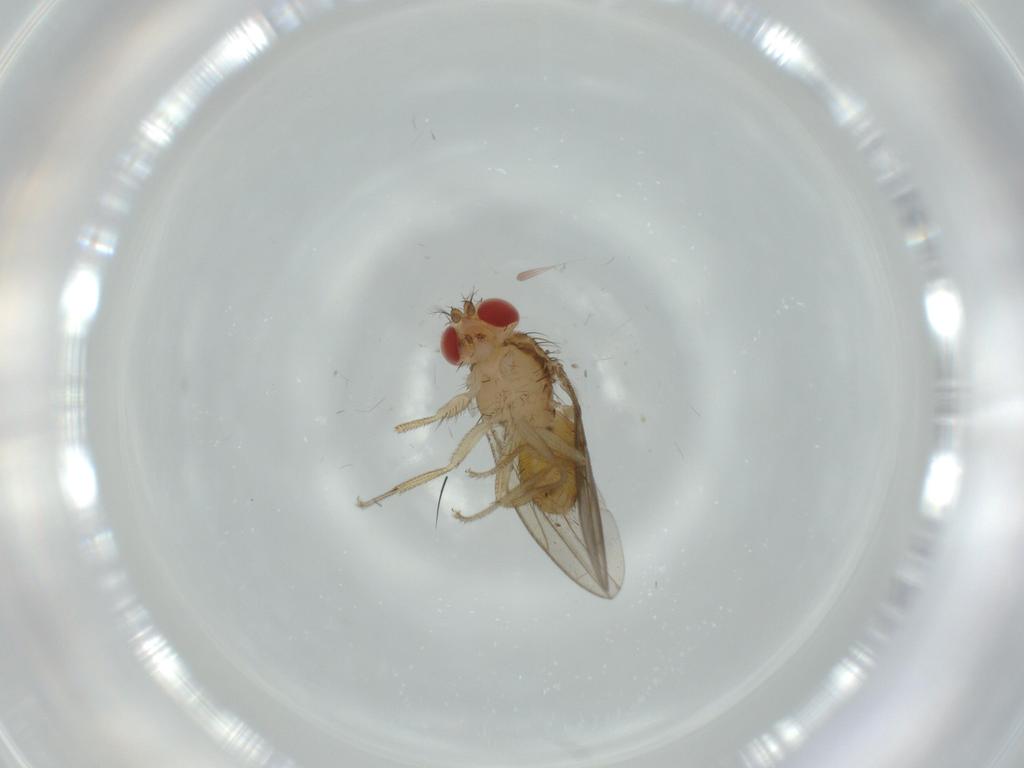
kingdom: Animalia
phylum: Arthropoda
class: Insecta
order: Diptera
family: Drosophilidae
